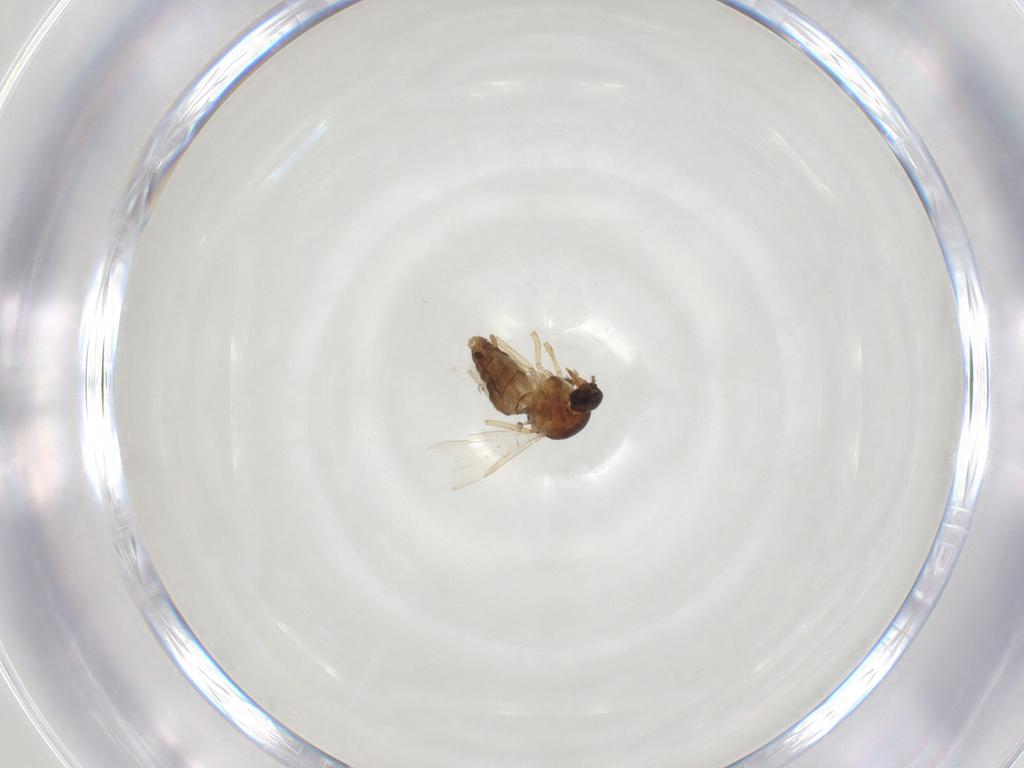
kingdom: Animalia
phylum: Arthropoda
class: Insecta
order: Diptera
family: Ceratopogonidae
